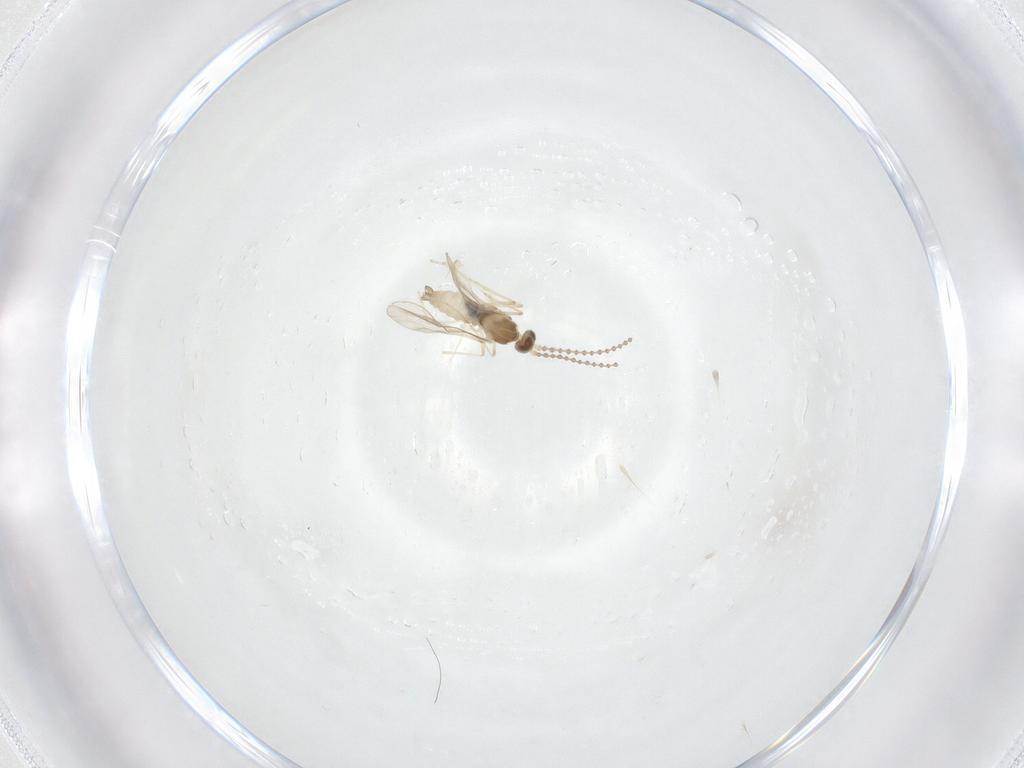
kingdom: Animalia
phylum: Arthropoda
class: Insecta
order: Diptera
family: Cecidomyiidae
